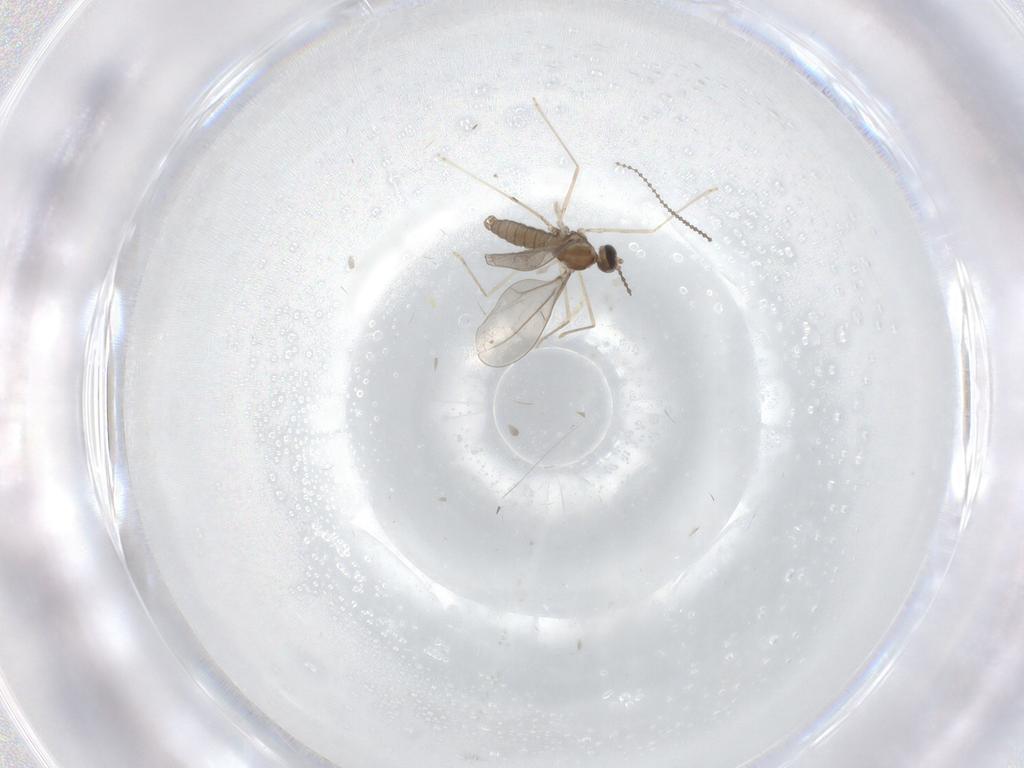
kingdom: Animalia
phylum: Arthropoda
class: Insecta
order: Diptera
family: Cecidomyiidae
